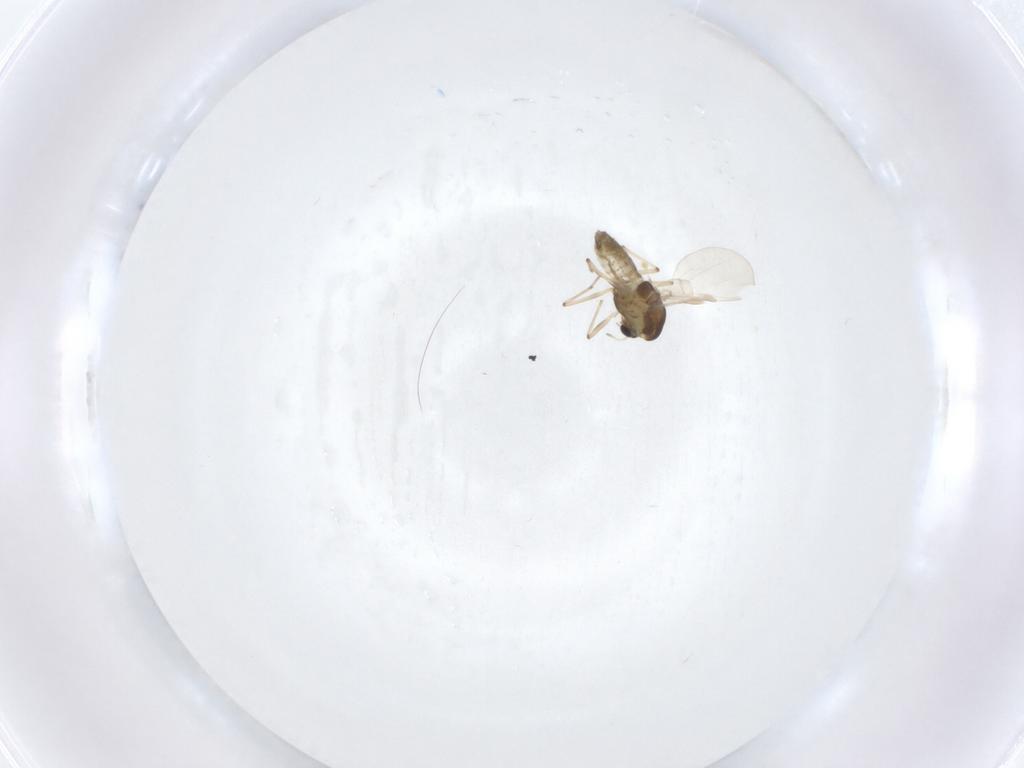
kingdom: Animalia
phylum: Arthropoda
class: Insecta
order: Diptera
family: Chironomidae
